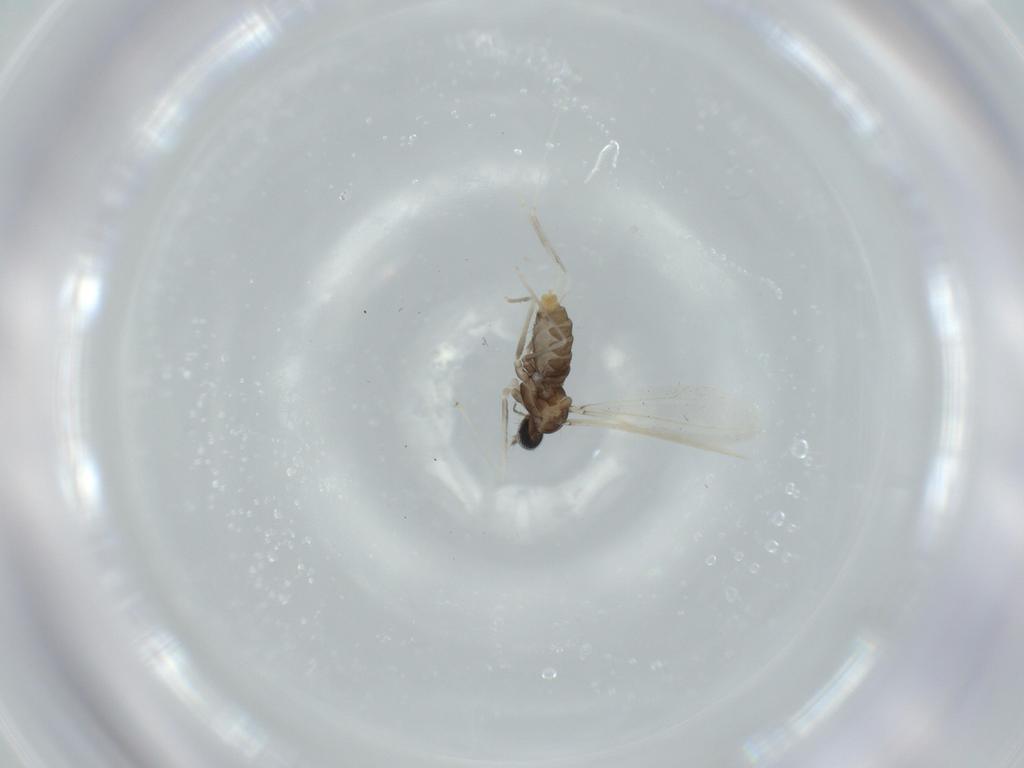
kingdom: Animalia
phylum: Arthropoda
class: Insecta
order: Diptera
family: Cecidomyiidae
